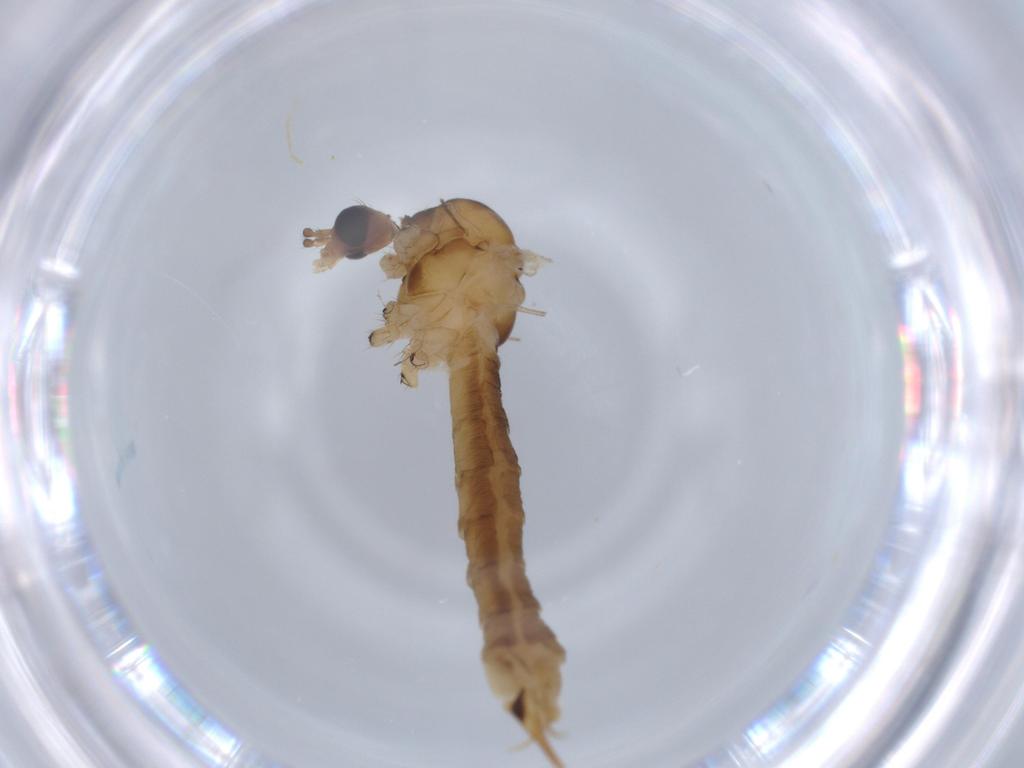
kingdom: Animalia
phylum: Arthropoda
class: Insecta
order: Diptera
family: Limoniidae
